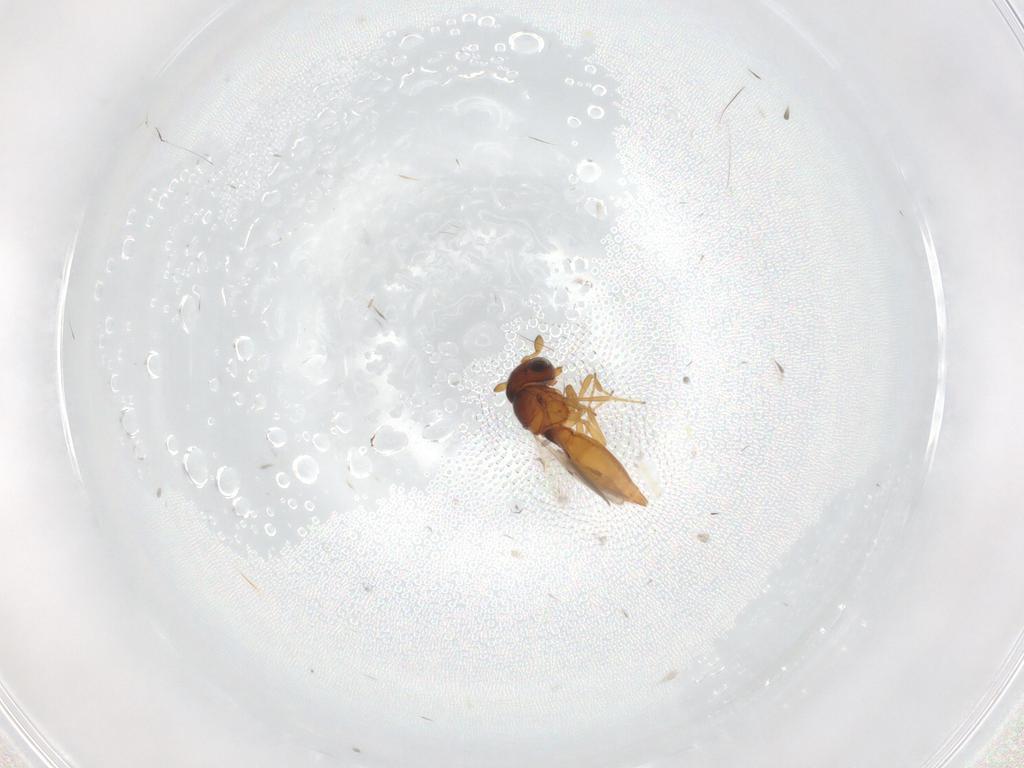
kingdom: Animalia
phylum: Arthropoda
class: Insecta
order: Hymenoptera
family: Scelionidae
